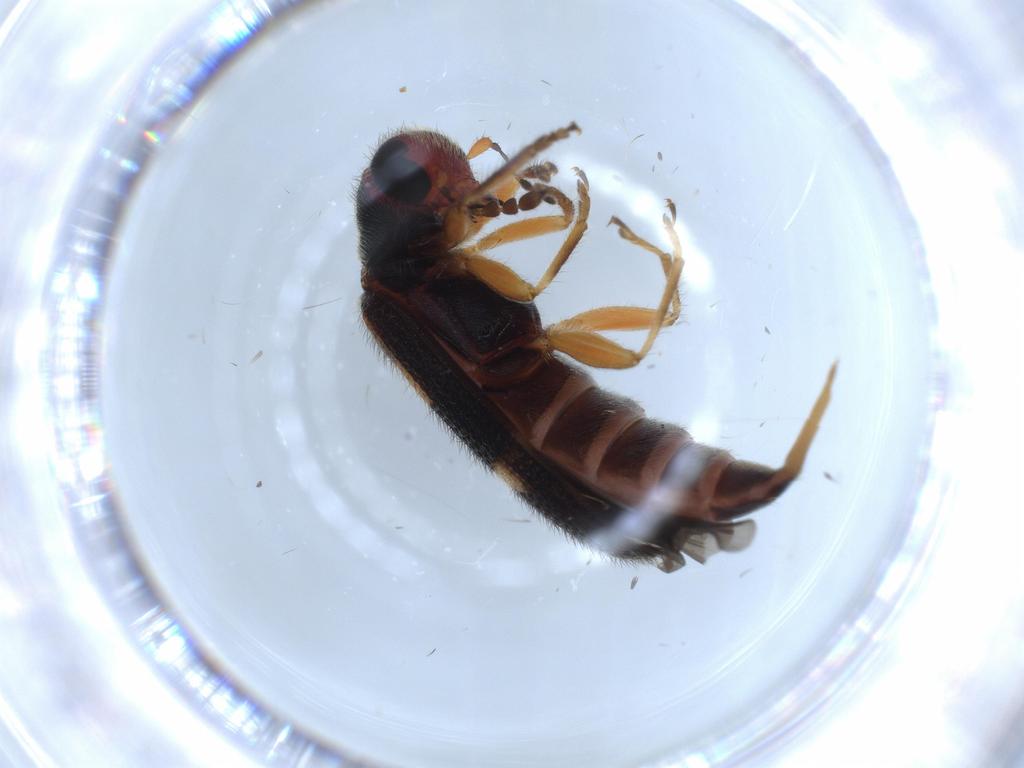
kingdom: Animalia
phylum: Arthropoda
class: Insecta
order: Coleoptera
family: Cleridae
